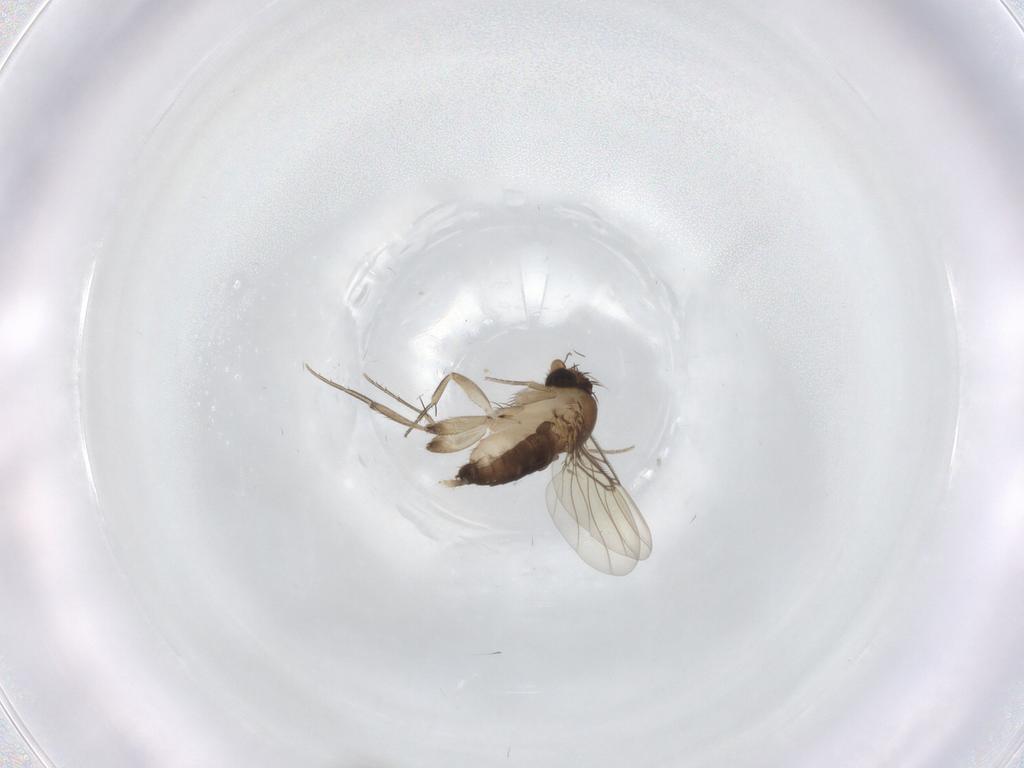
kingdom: Animalia
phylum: Arthropoda
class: Insecta
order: Diptera
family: Phoridae
